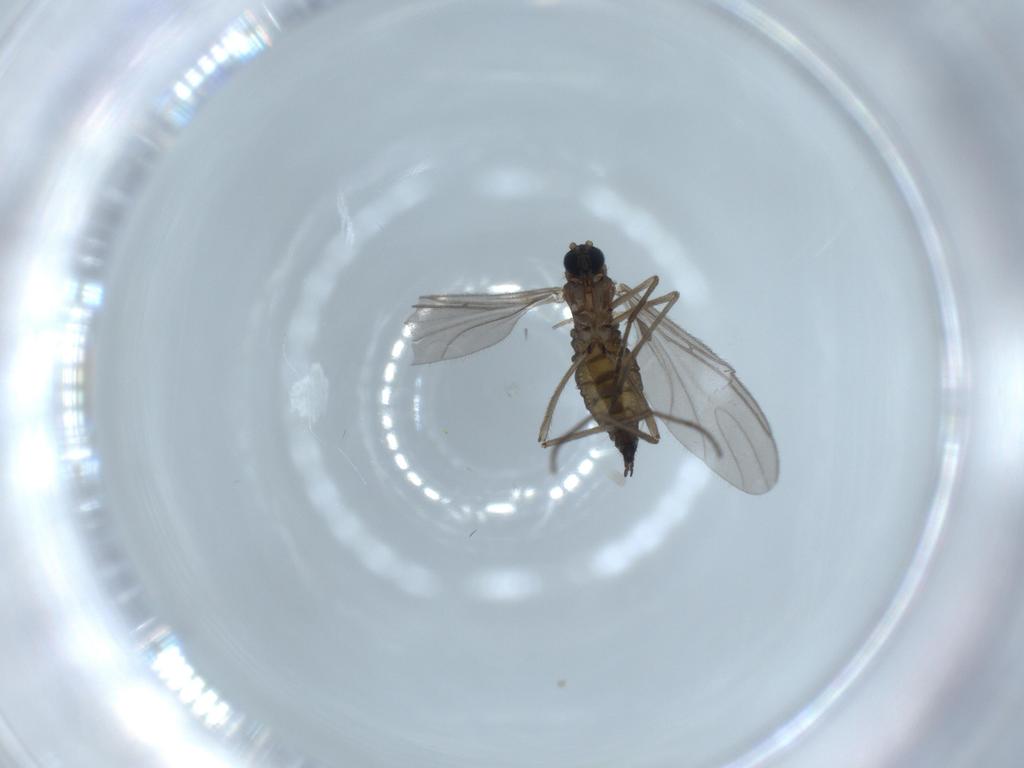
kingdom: Animalia
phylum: Arthropoda
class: Insecta
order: Diptera
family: Sciaridae
